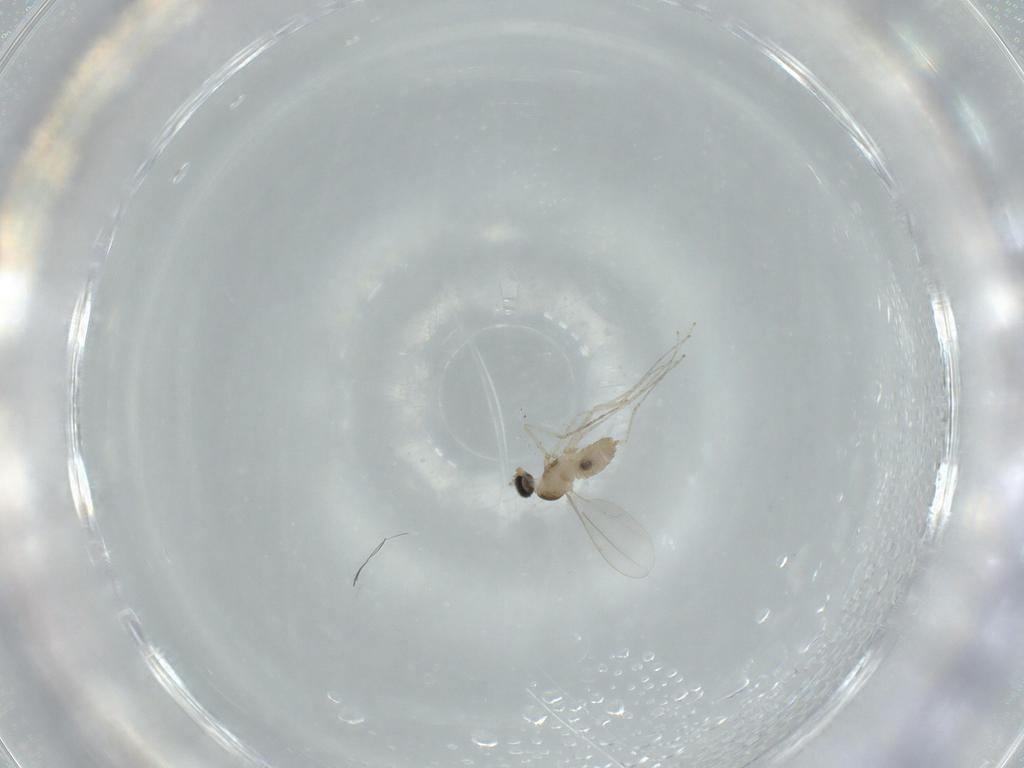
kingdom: Animalia
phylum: Arthropoda
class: Insecta
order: Diptera
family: Cecidomyiidae
